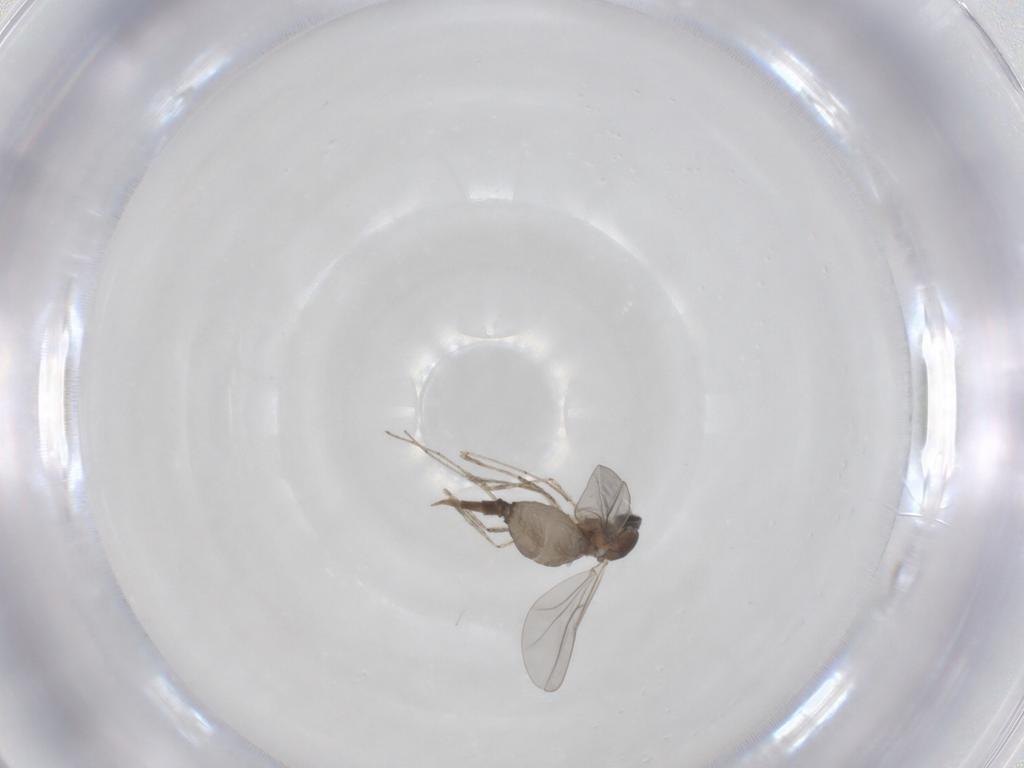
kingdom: Animalia
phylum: Arthropoda
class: Insecta
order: Diptera
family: Cecidomyiidae
